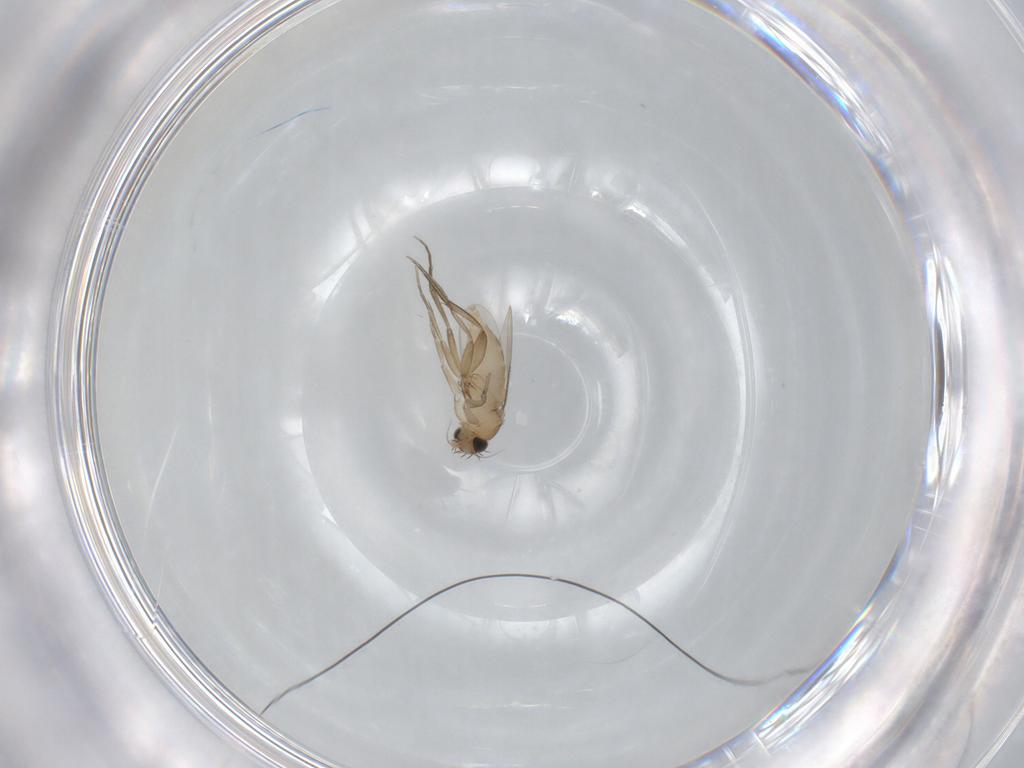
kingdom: Animalia
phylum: Arthropoda
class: Insecta
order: Diptera
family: Phoridae
